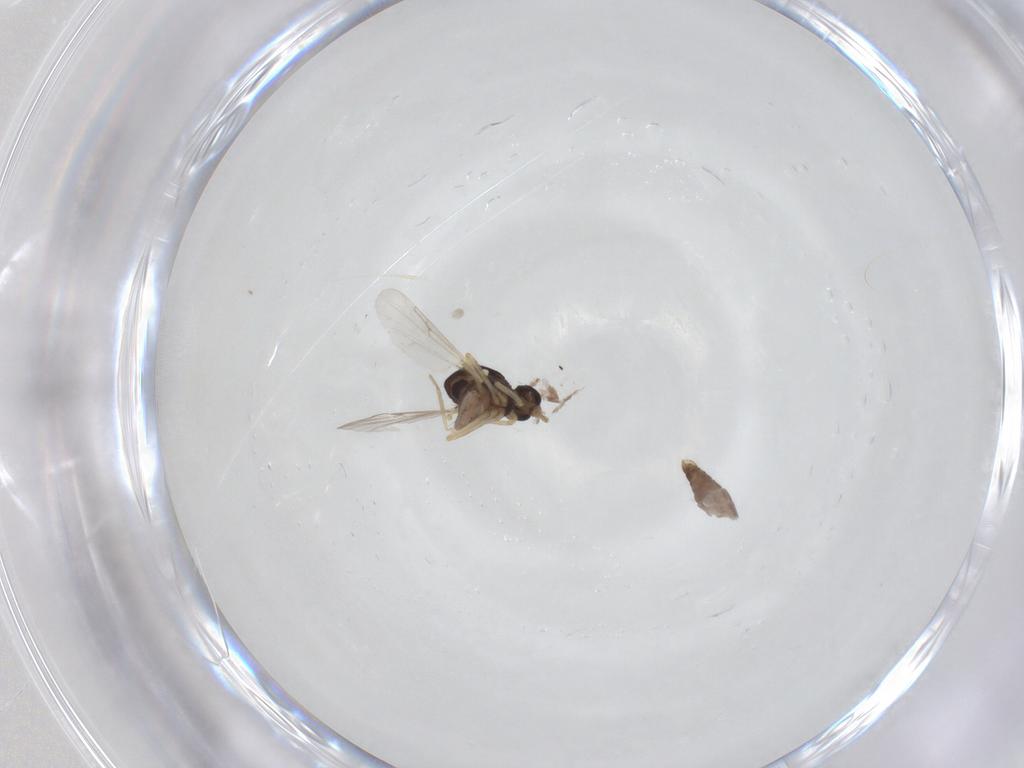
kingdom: Animalia
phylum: Arthropoda
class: Insecta
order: Diptera
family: Ceratopogonidae
